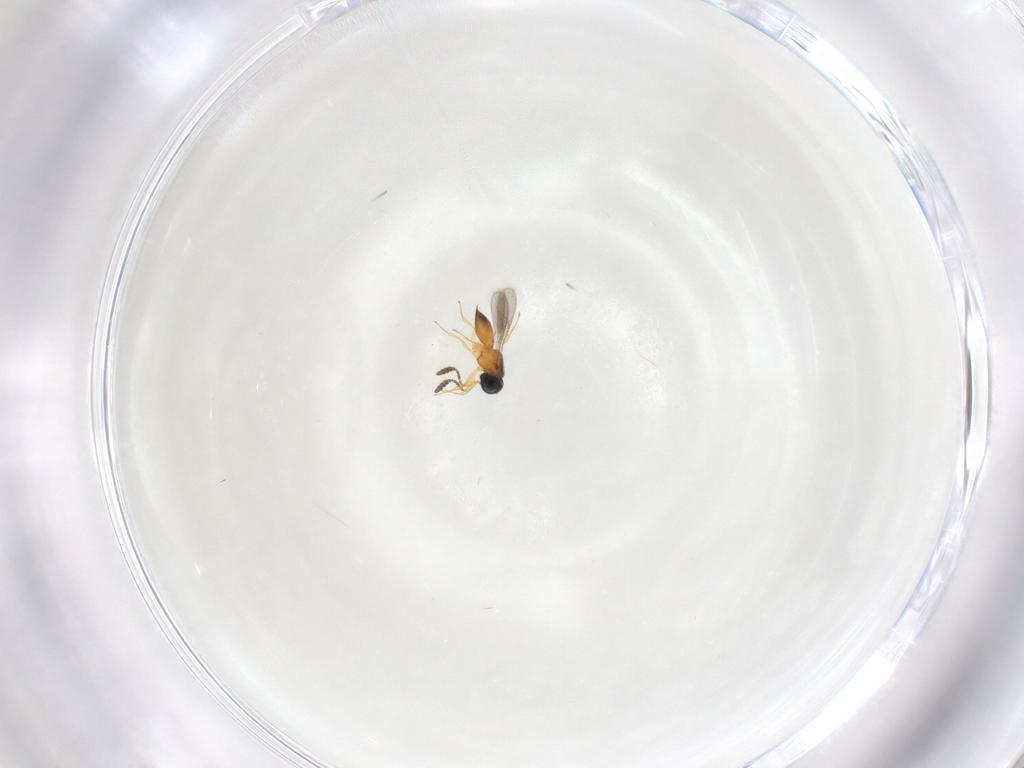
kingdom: Animalia
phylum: Arthropoda
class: Insecta
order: Hymenoptera
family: Scelionidae
